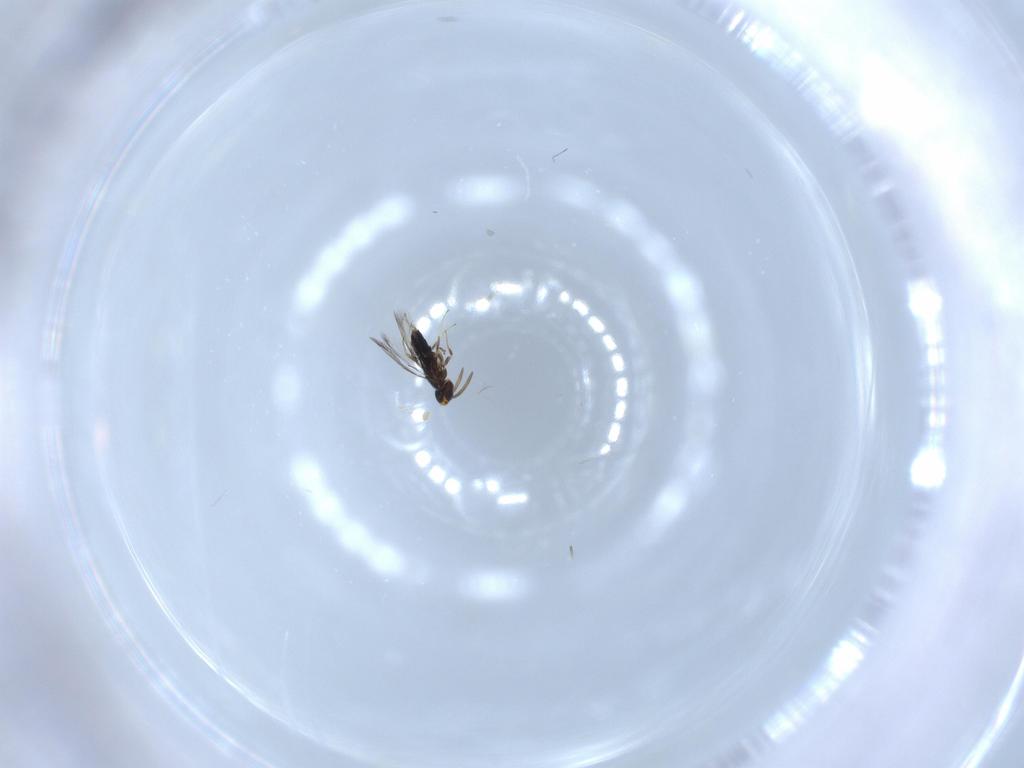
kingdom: Animalia
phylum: Arthropoda
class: Insecta
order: Hymenoptera
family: Signiphoridae
